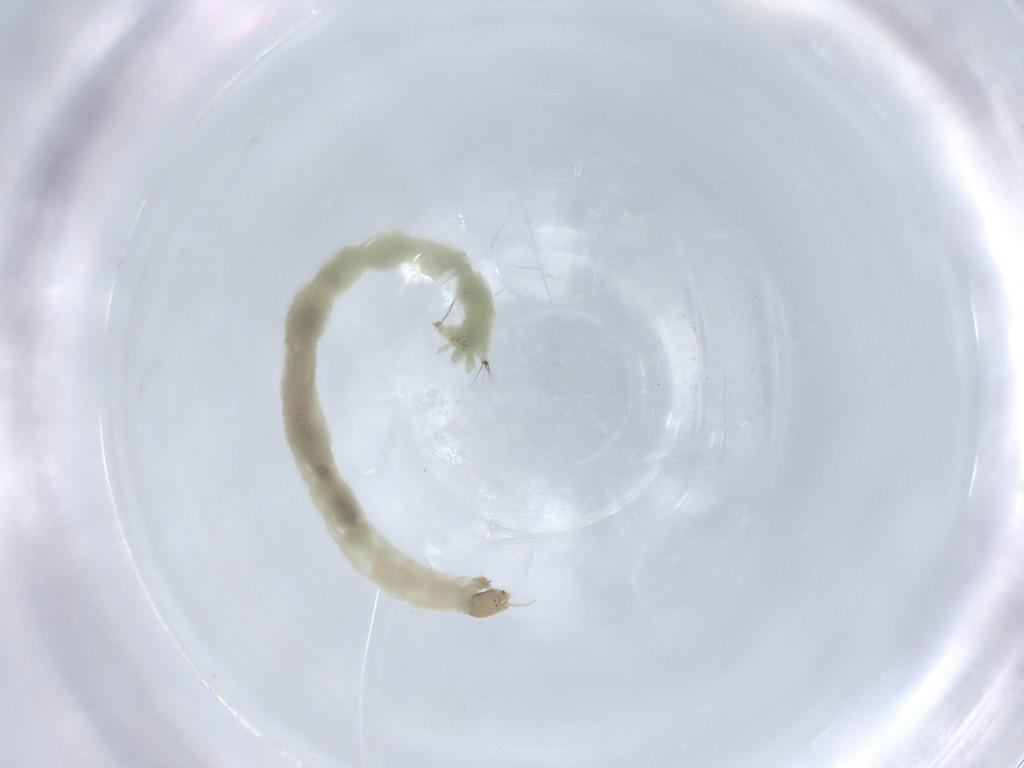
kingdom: Animalia
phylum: Arthropoda
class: Insecta
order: Diptera
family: Chironomidae
